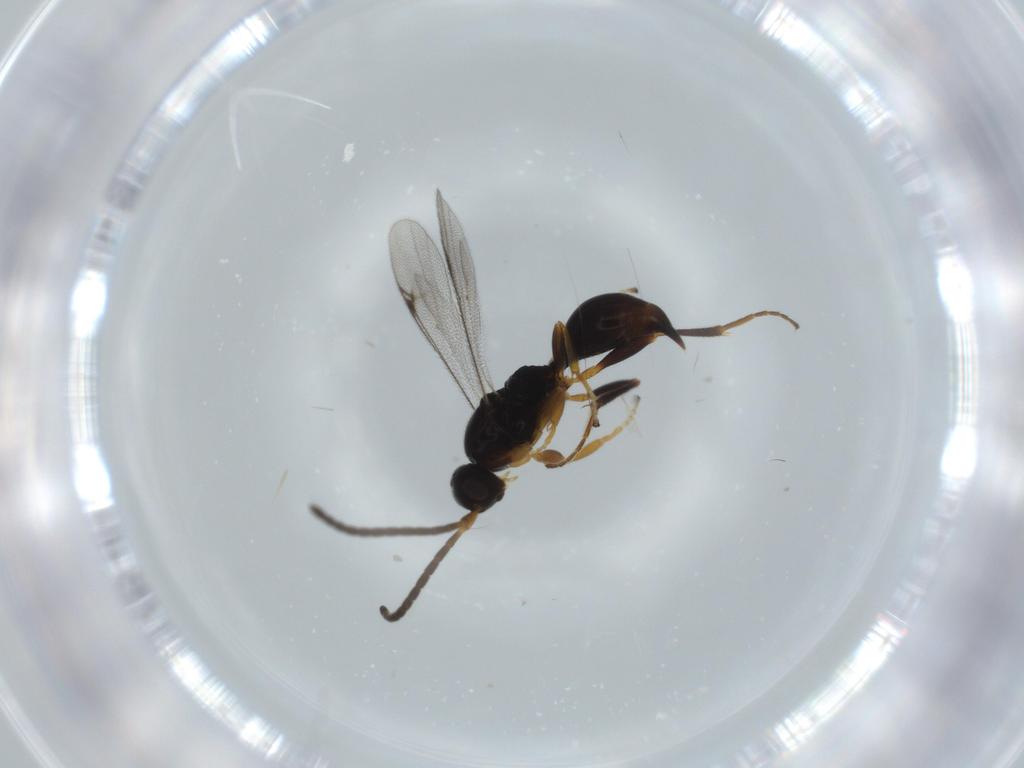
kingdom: Animalia
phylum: Arthropoda
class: Insecta
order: Hymenoptera
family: Proctotrupidae
